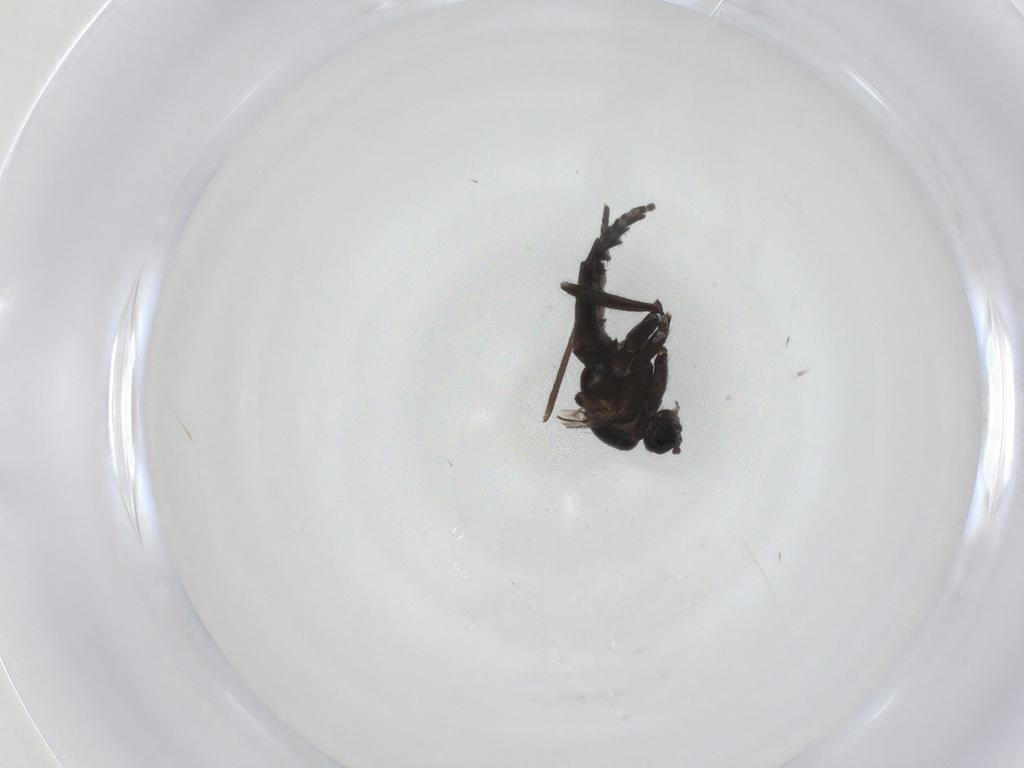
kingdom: Animalia
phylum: Arthropoda
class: Insecta
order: Diptera
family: Sciaridae
